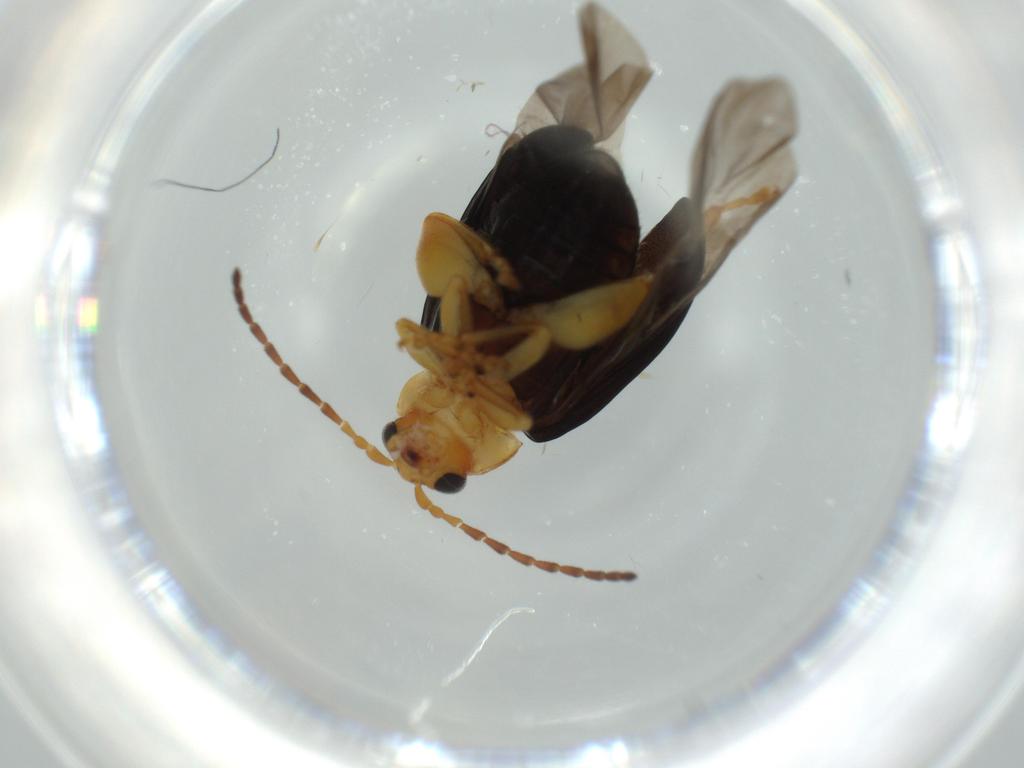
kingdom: Animalia
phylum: Arthropoda
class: Insecta
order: Coleoptera
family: Chrysomelidae
